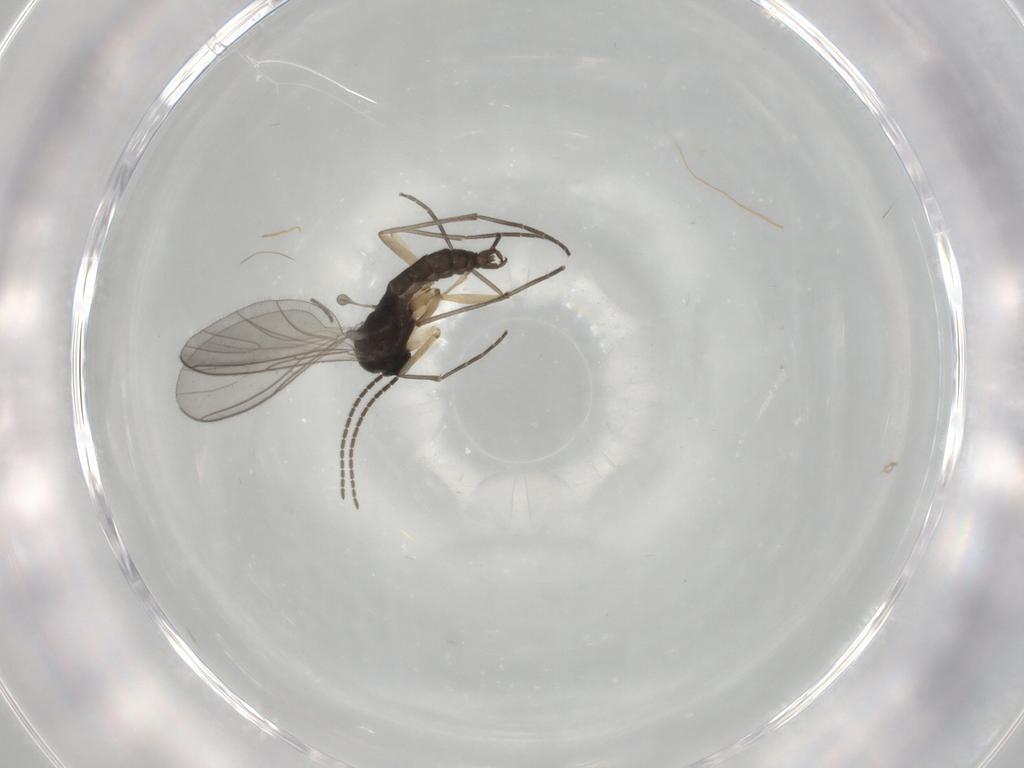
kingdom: Animalia
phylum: Arthropoda
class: Insecta
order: Diptera
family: Sciaridae
